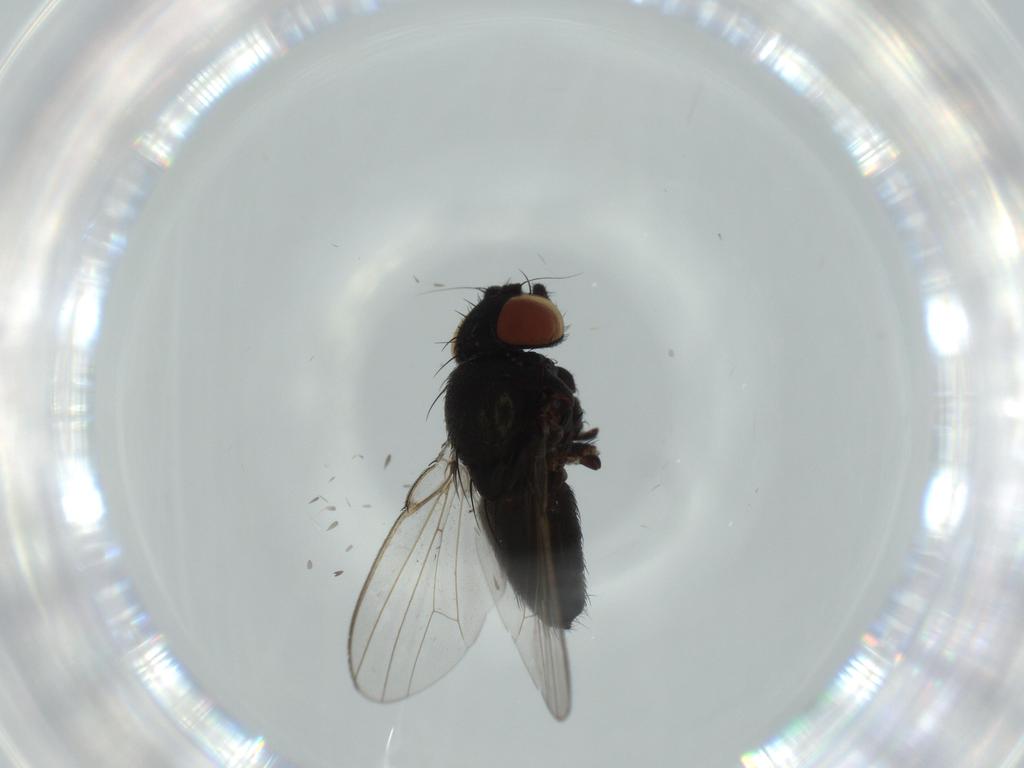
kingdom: Animalia
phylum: Arthropoda
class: Insecta
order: Diptera
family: Milichiidae
